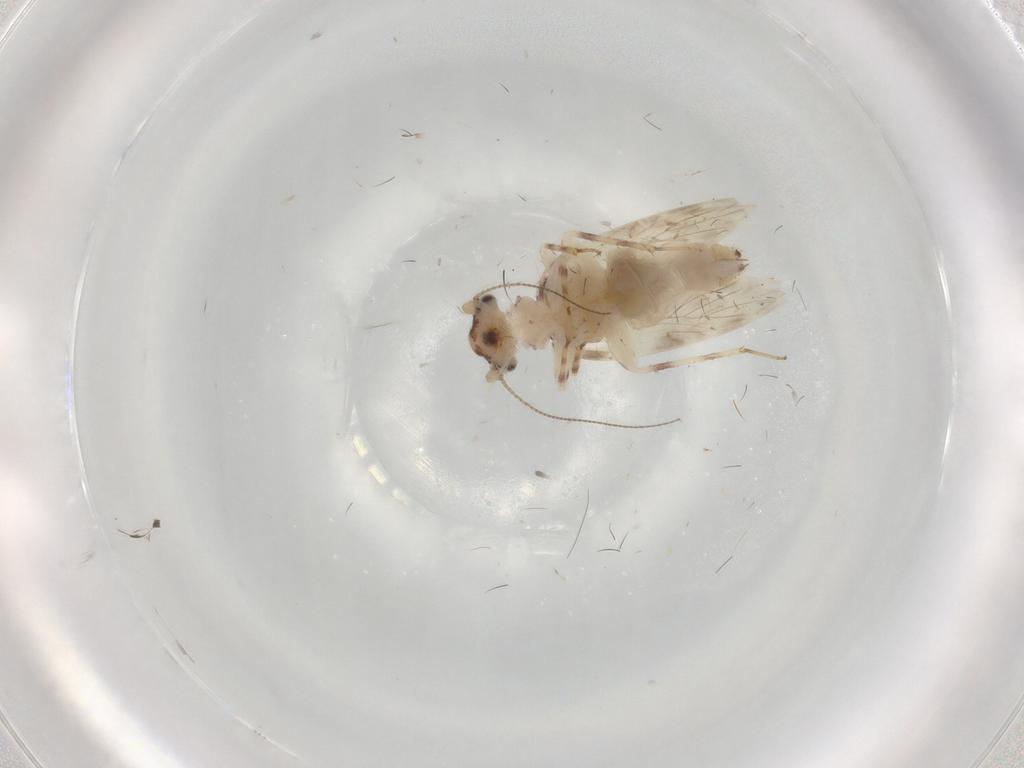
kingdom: Animalia
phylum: Arthropoda
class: Insecta
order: Psocodea
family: Lepidopsocidae
